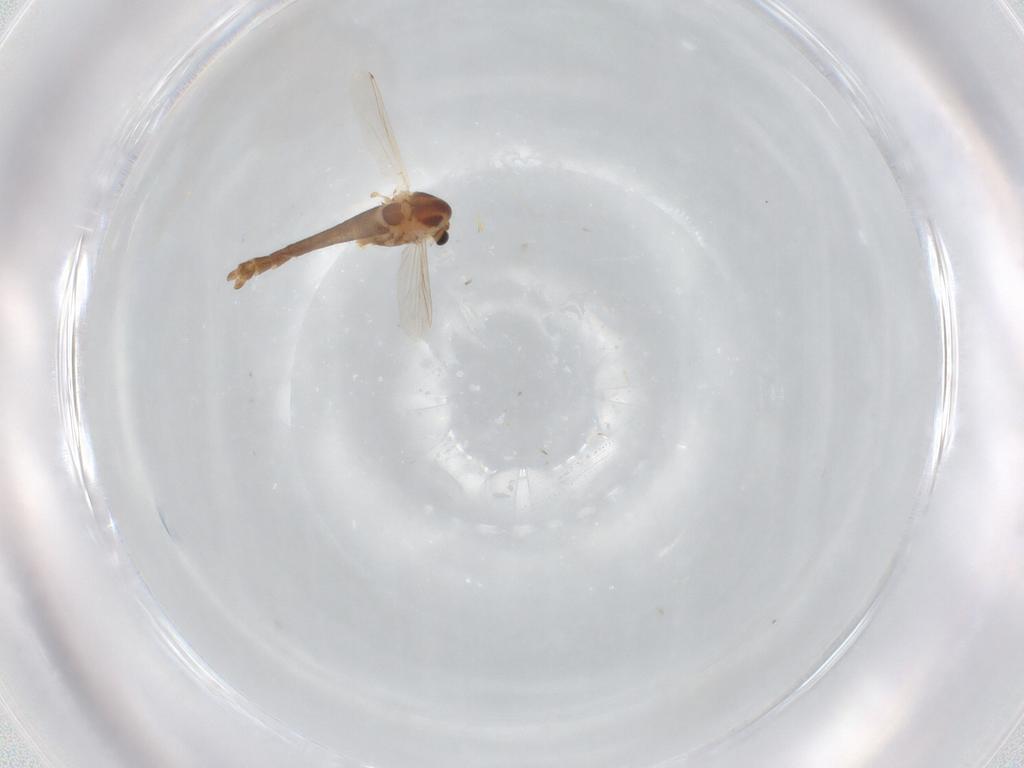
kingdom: Animalia
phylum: Arthropoda
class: Insecta
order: Diptera
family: Chironomidae
